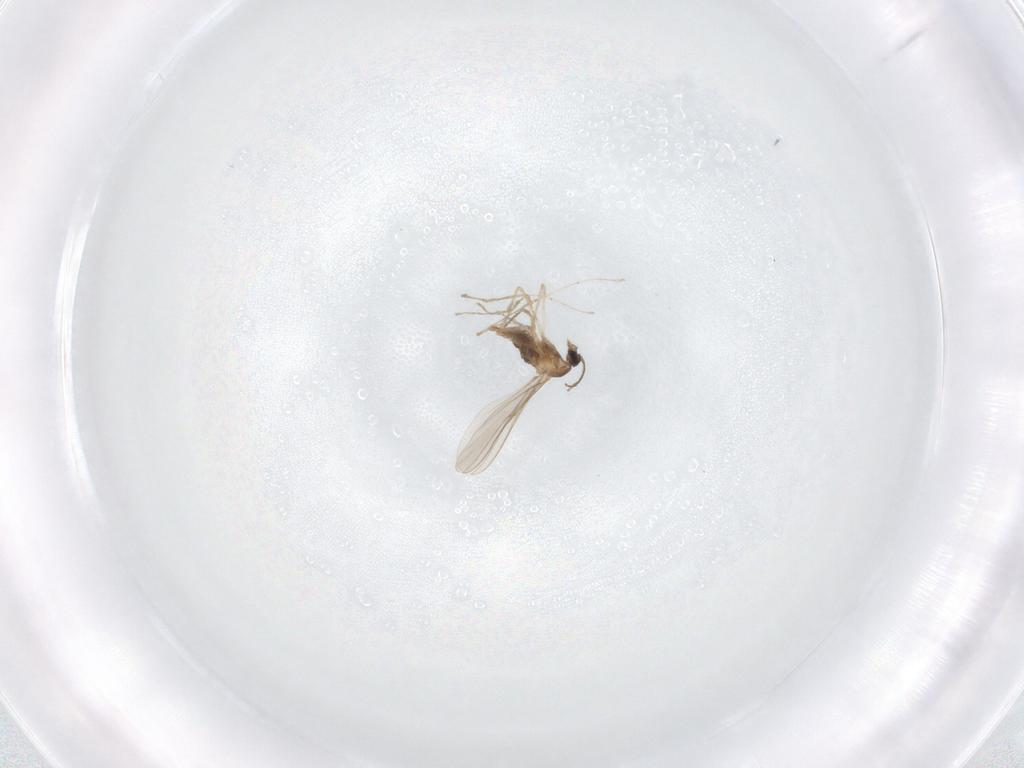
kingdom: Animalia
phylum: Arthropoda
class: Insecta
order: Diptera
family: Cecidomyiidae
